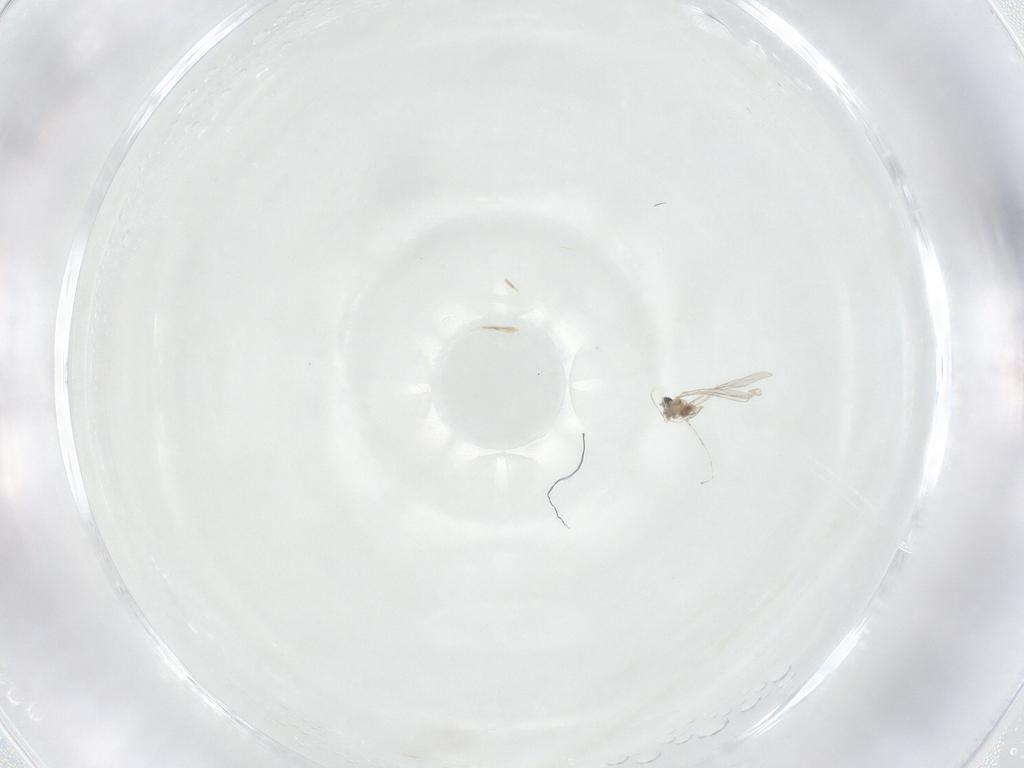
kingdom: Animalia
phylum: Arthropoda
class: Insecta
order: Diptera
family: Cecidomyiidae
